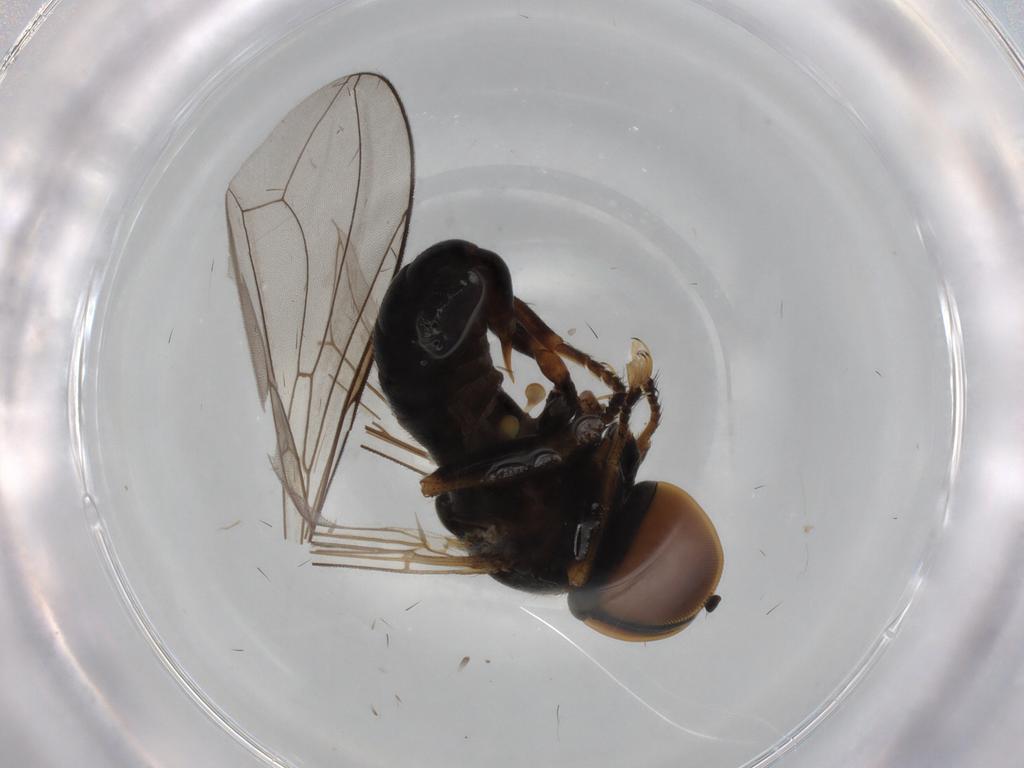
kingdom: Animalia
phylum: Arthropoda
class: Insecta
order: Diptera
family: Pipunculidae
